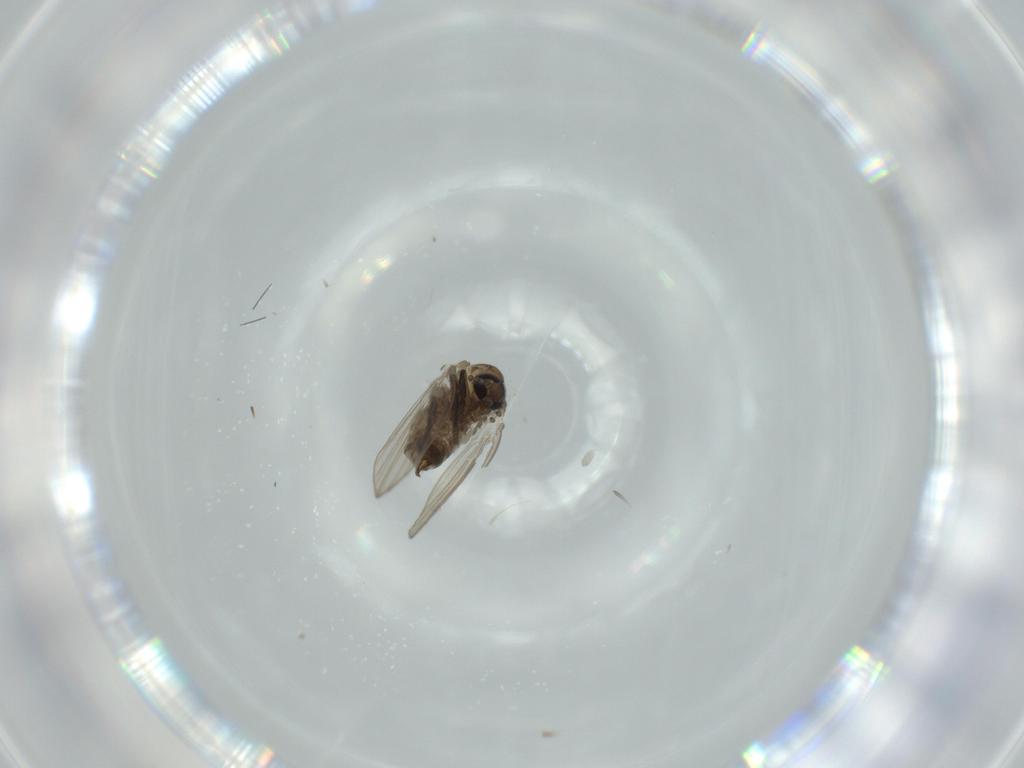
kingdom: Animalia
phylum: Arthropoda
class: Insecta
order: Diptera
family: Psychodidae
